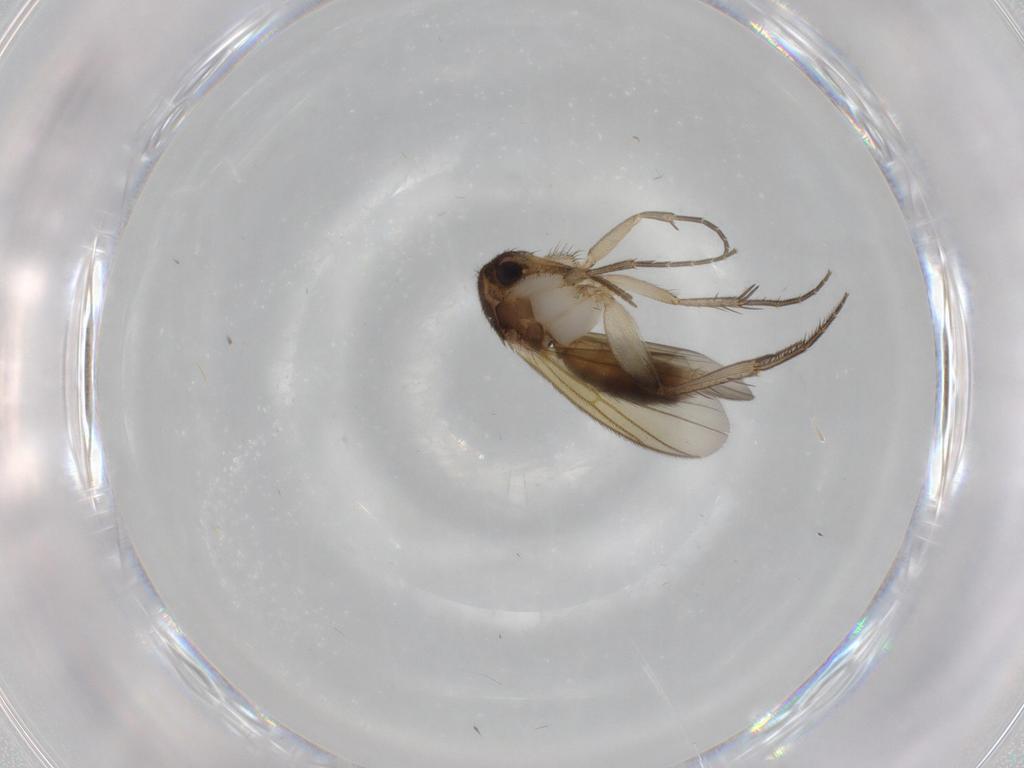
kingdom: Animalia
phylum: Arthropoda
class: Insecta
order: Diptera
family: Mycetophilidae
